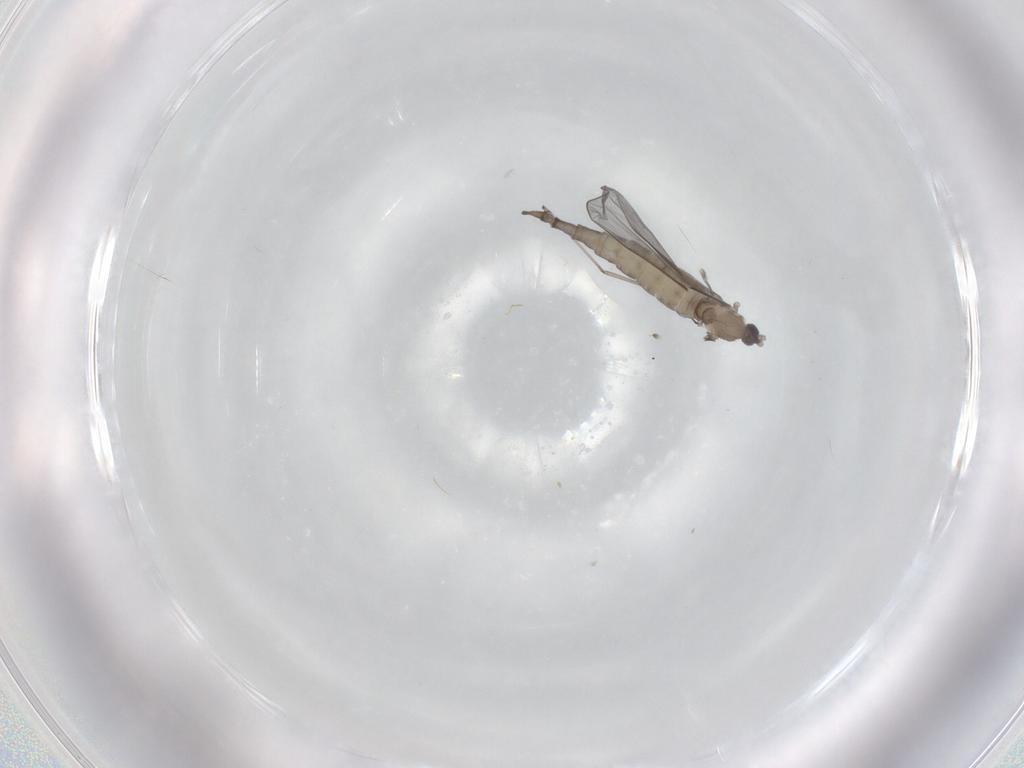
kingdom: Animalia
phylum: Arthropoda
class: Insecta
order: Diptera
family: Cecidomyiidae
